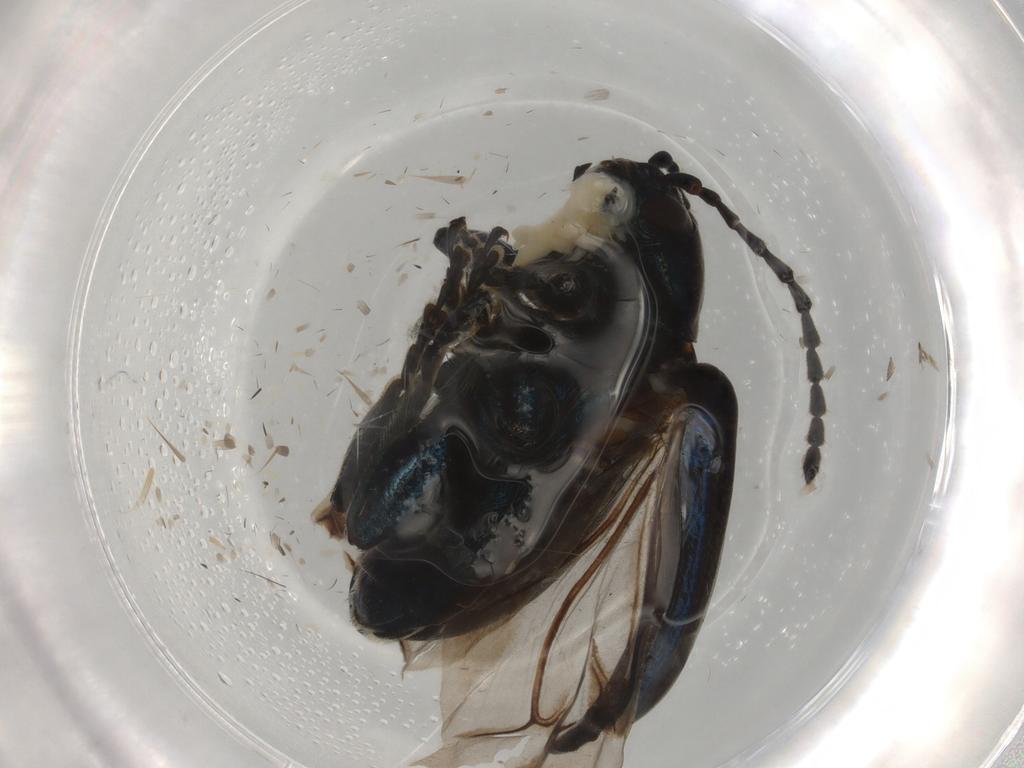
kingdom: Animalia
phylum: Arthropoda
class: Insecta
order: Coleoptera
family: Chrysomelidae
